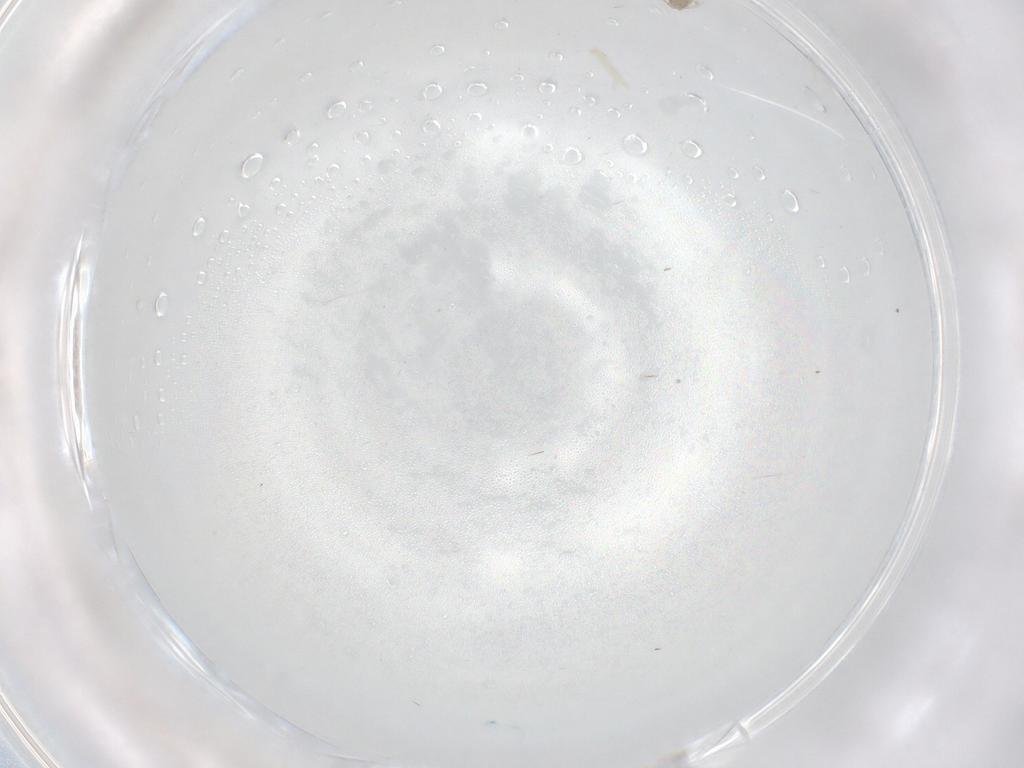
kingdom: Animalia
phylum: Arthropoda
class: Insecta
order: Diptera
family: Cecidomyiidae
